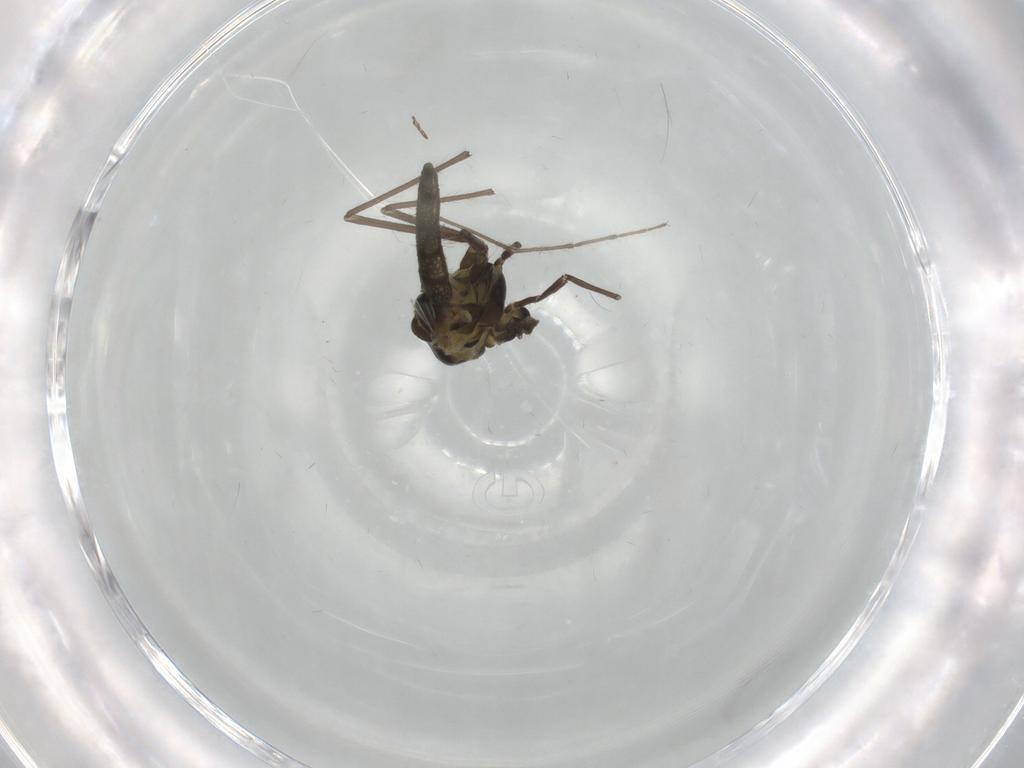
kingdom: Animalia
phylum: Arthropoda
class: Insecta
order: Diptera
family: Chironomidae
